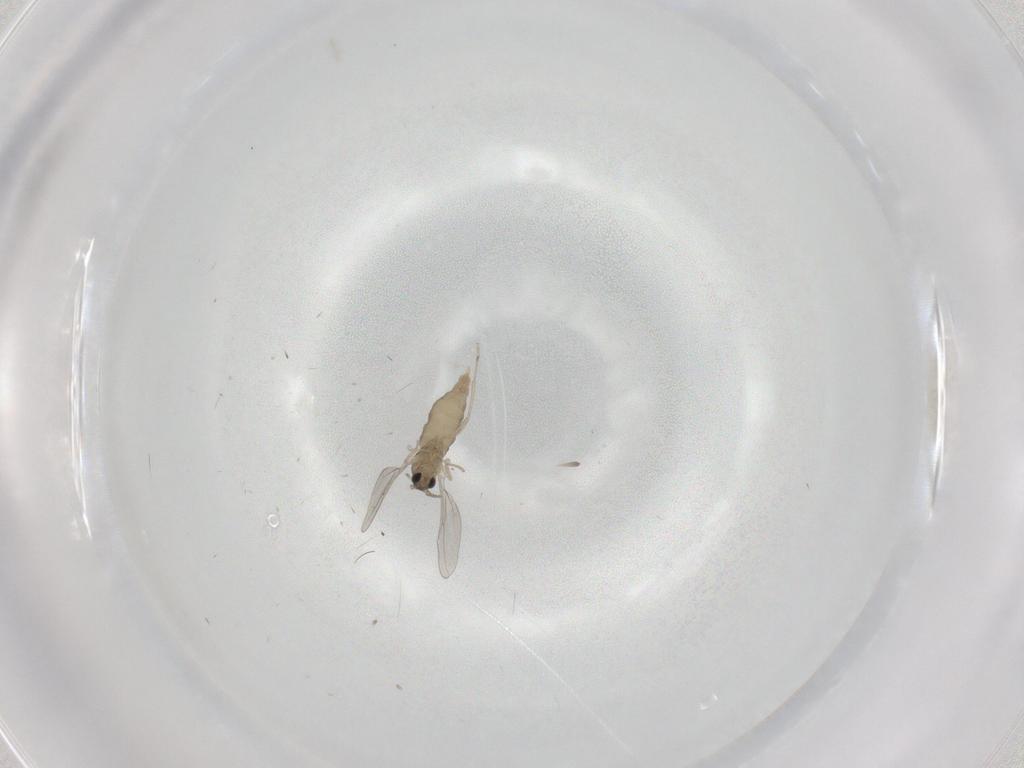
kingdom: Animalia
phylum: Arthropoda
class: Insecta
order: Diptera
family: Cecidomyiidae
